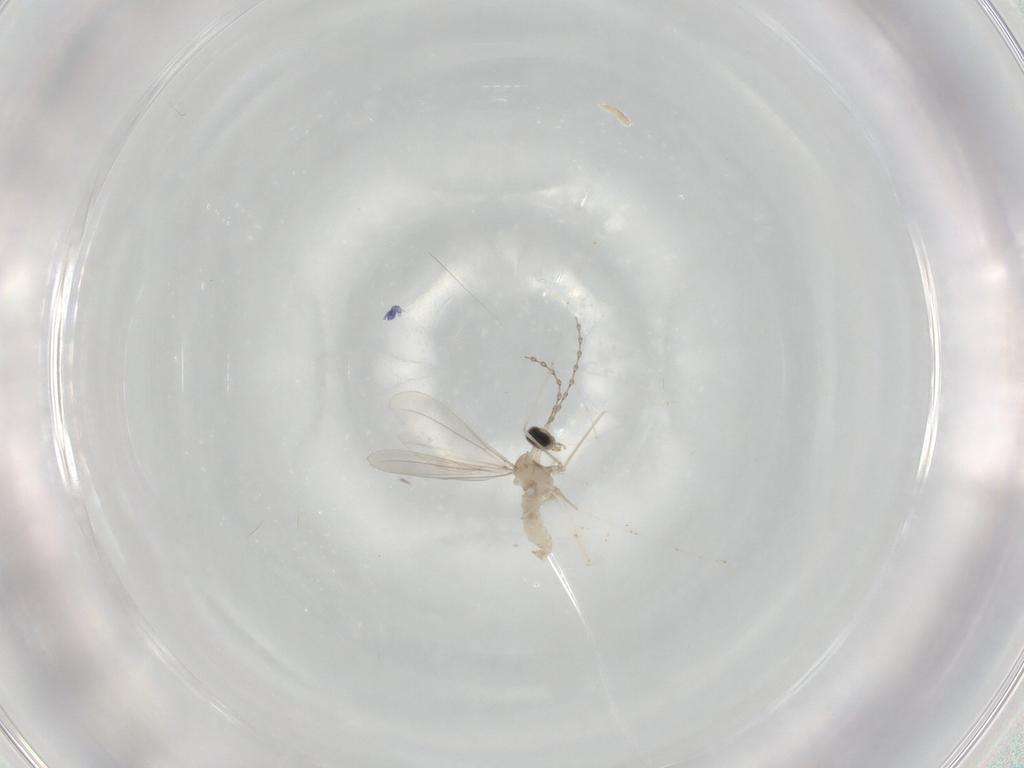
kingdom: Animalia
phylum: Arthropoda
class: Insecta
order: Diptera
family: Cecidomyiidae
